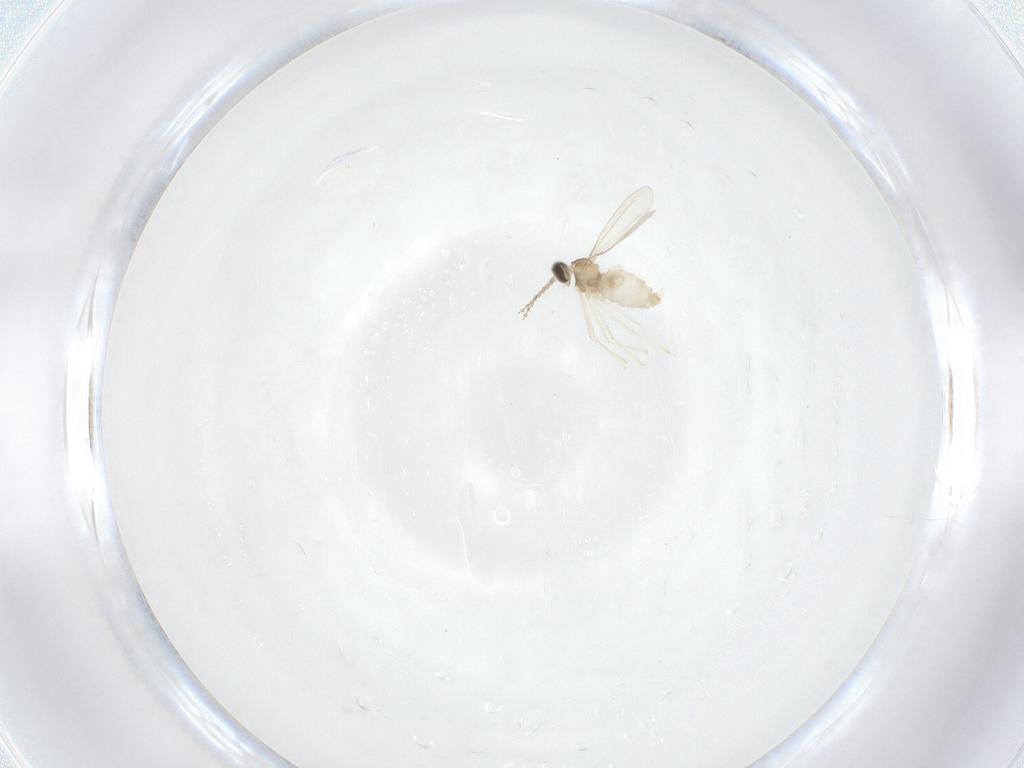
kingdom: Animalia
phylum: Arthropoda
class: Insecta
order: Diptera
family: Cecidomyiidae
